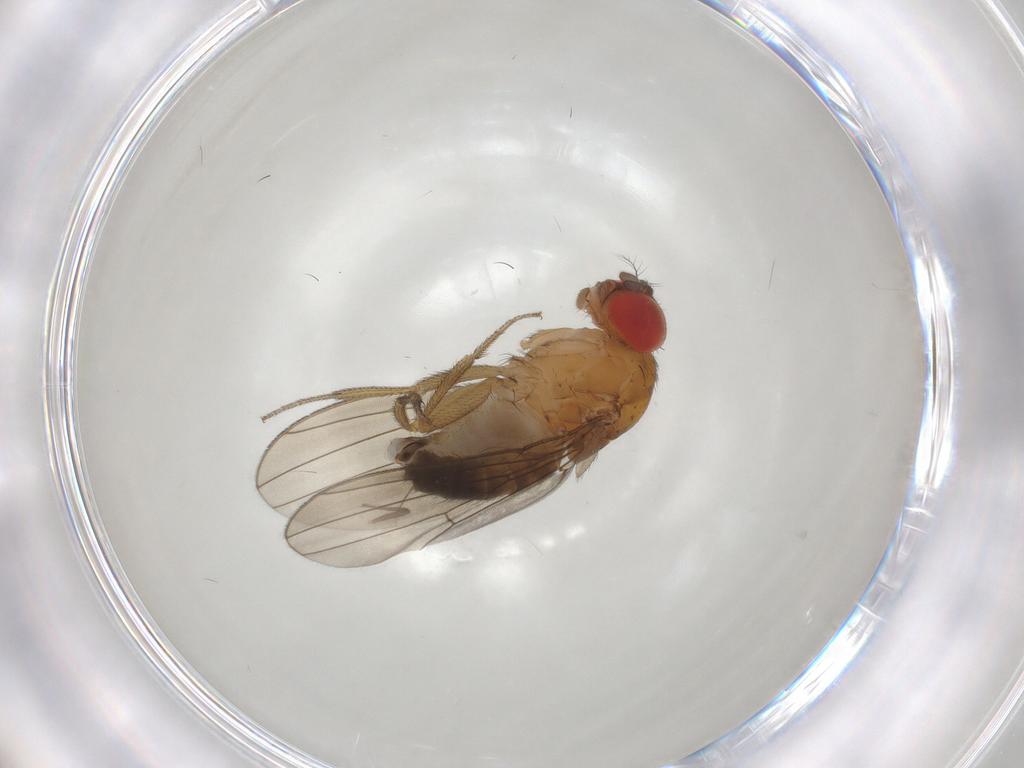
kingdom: Animalia
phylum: Arthropoda
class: Insecta
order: Diptera
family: Drosophilidae
